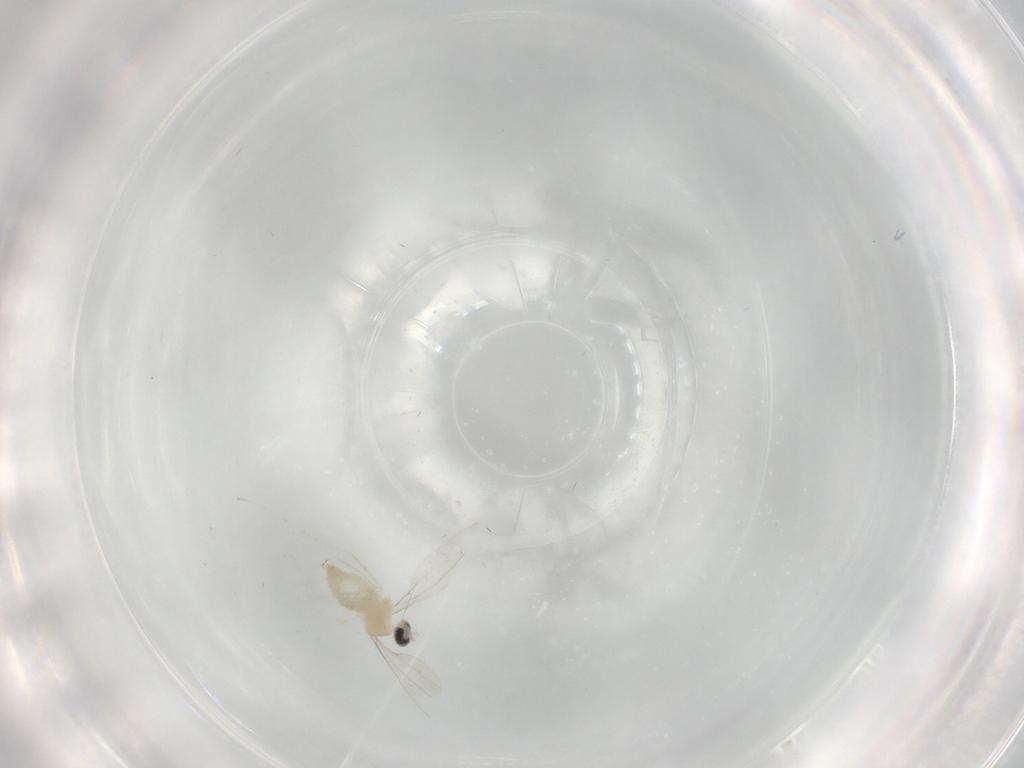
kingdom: Animalia
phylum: Arthropoda
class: Insecta
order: Diptera
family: Cecidomyiidae
